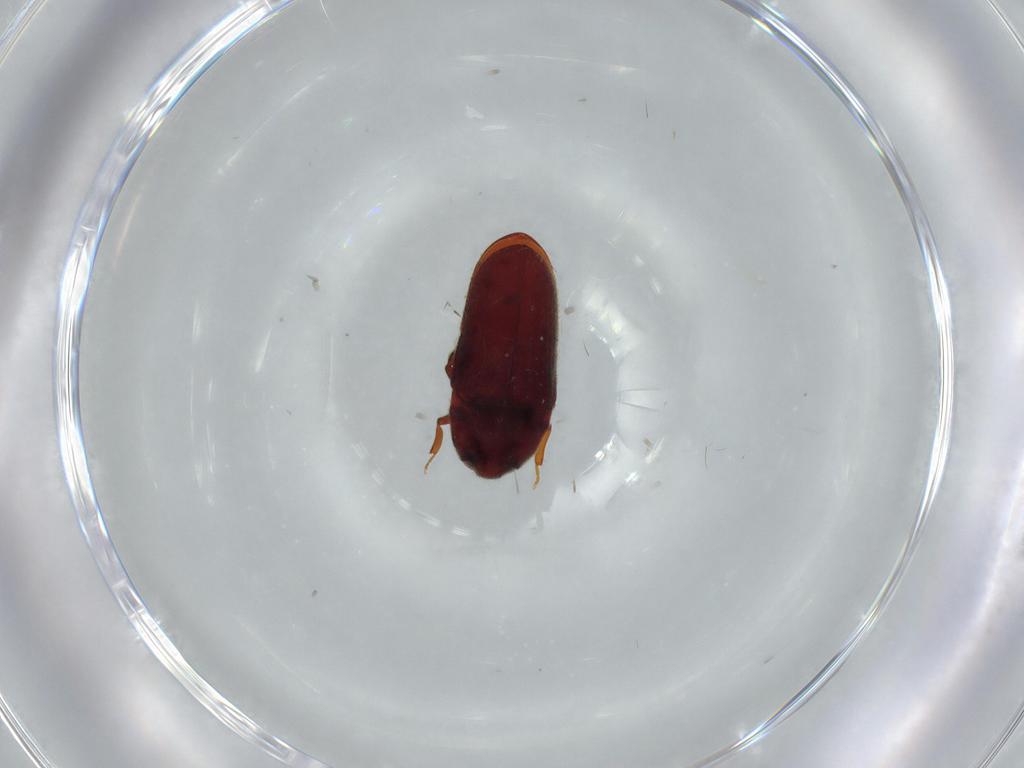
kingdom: Animalia
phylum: Arthropoda
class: Insecta
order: Coleoptera
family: Throscidae
